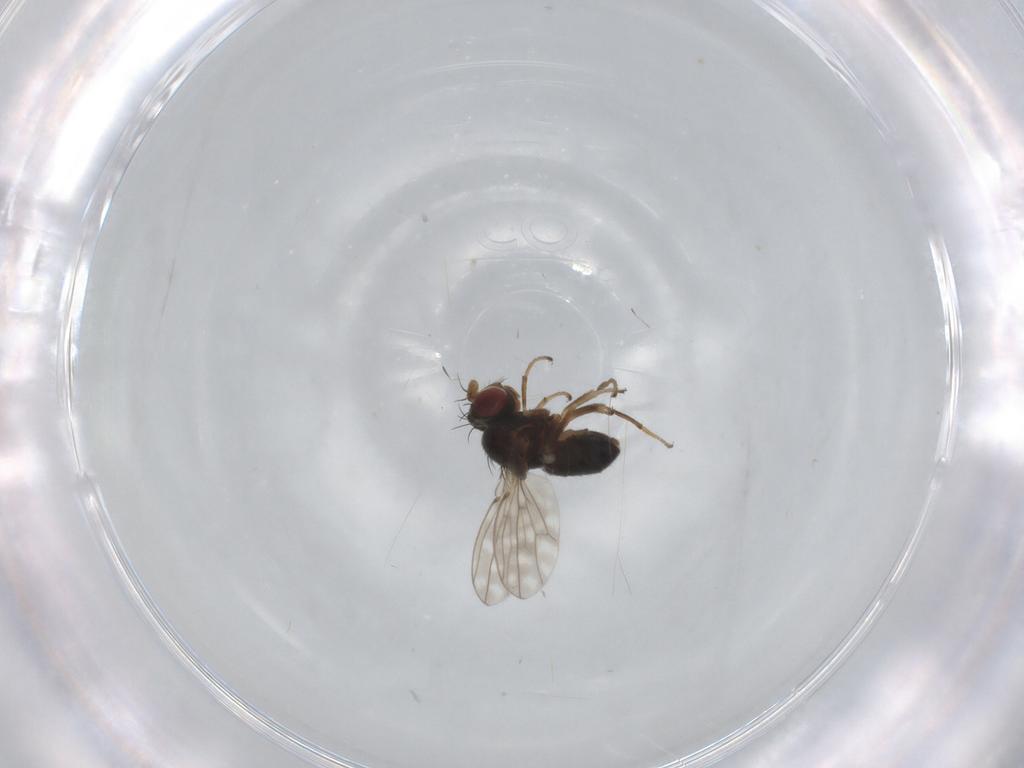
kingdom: Animalia
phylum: Arthropoda
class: Insecta
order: Diptera
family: Ephydridae
